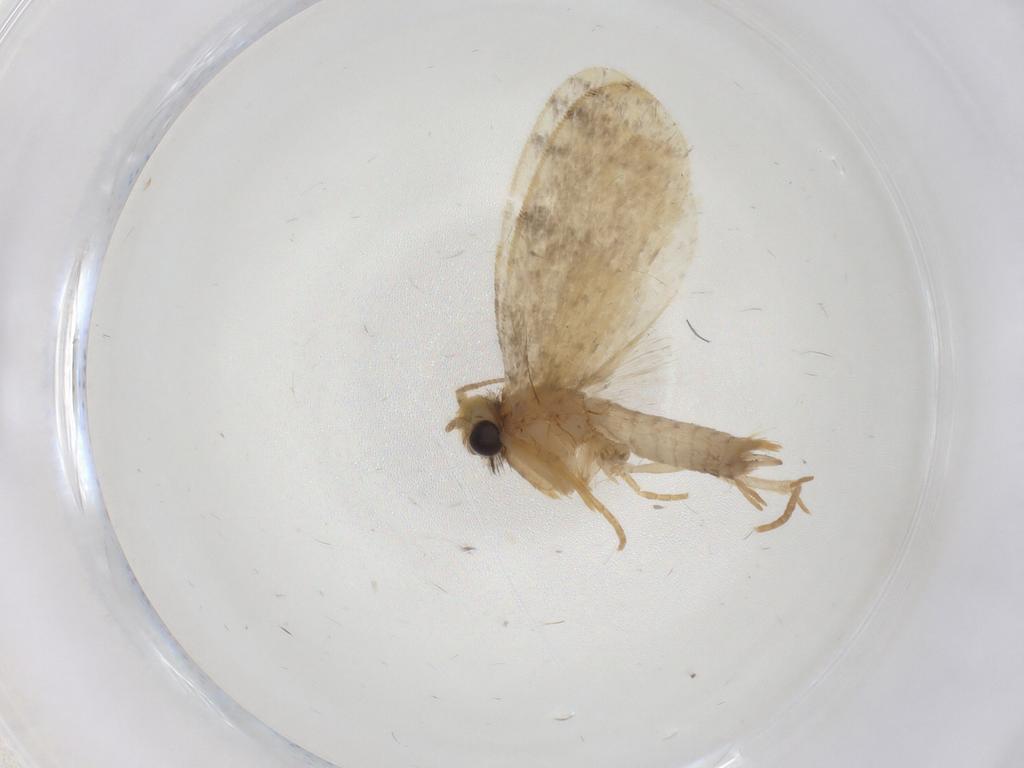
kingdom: Animalia
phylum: Arthropoda
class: Insecta
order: Lepidoptera
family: Psychidae
